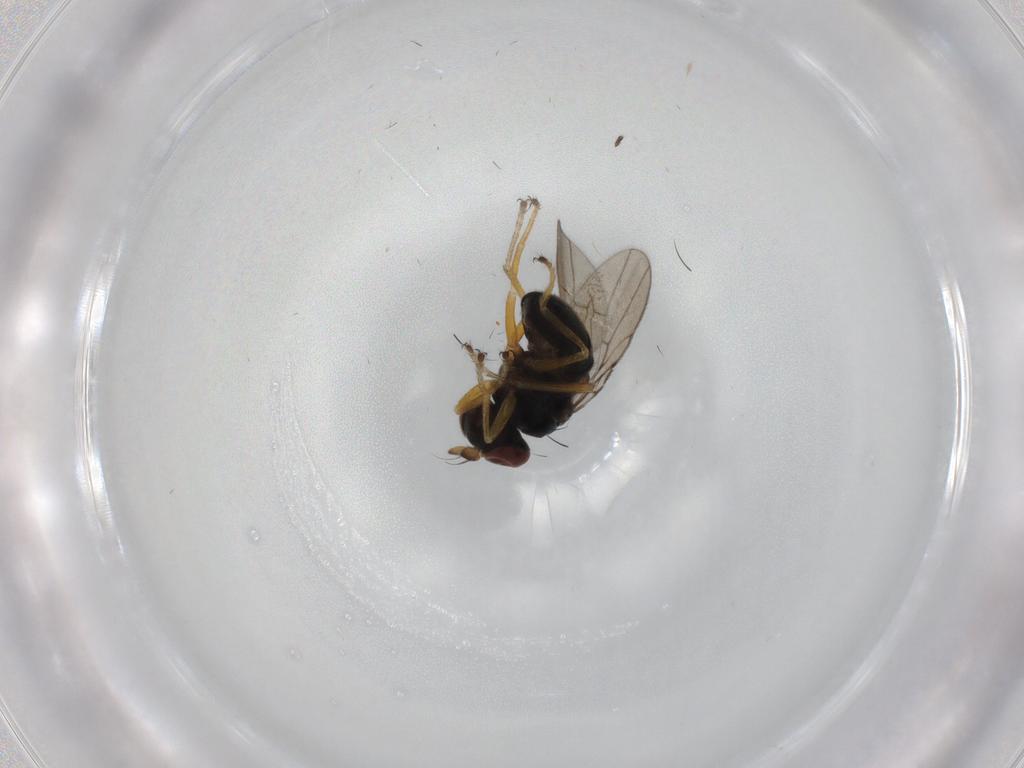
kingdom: Animalia
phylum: Arthropoda
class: Insecta
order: Diptera
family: Ephydridae
